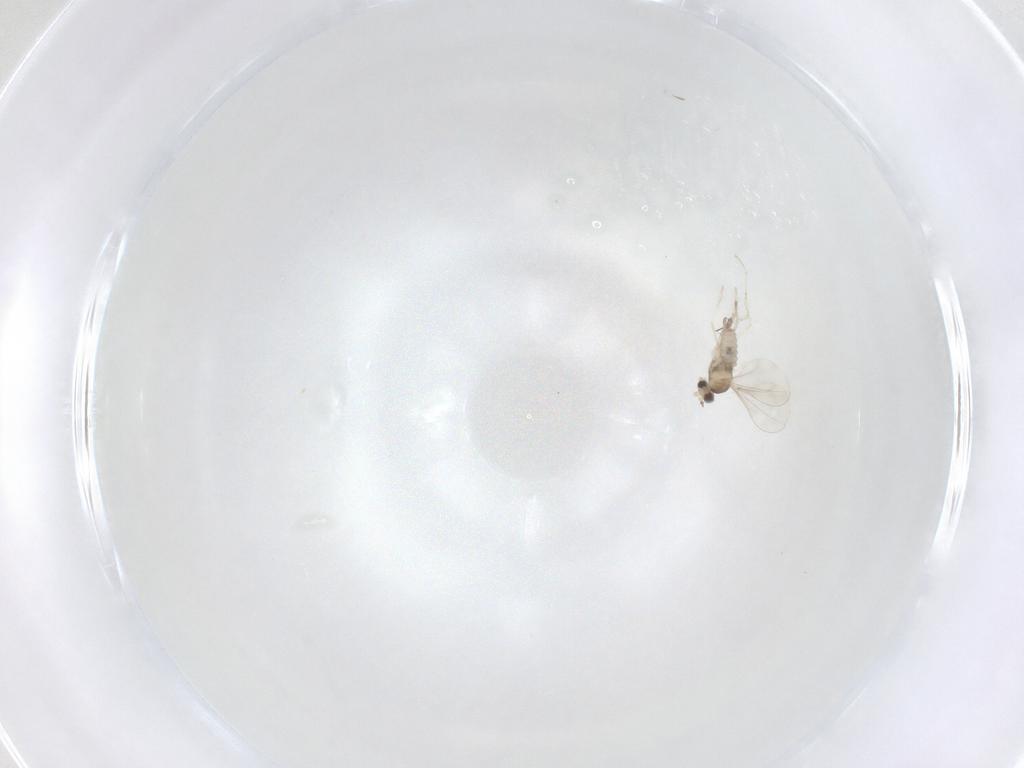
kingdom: Animalia
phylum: Arthropoda
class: Insecta
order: Diptera
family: Cecidomyiidae
